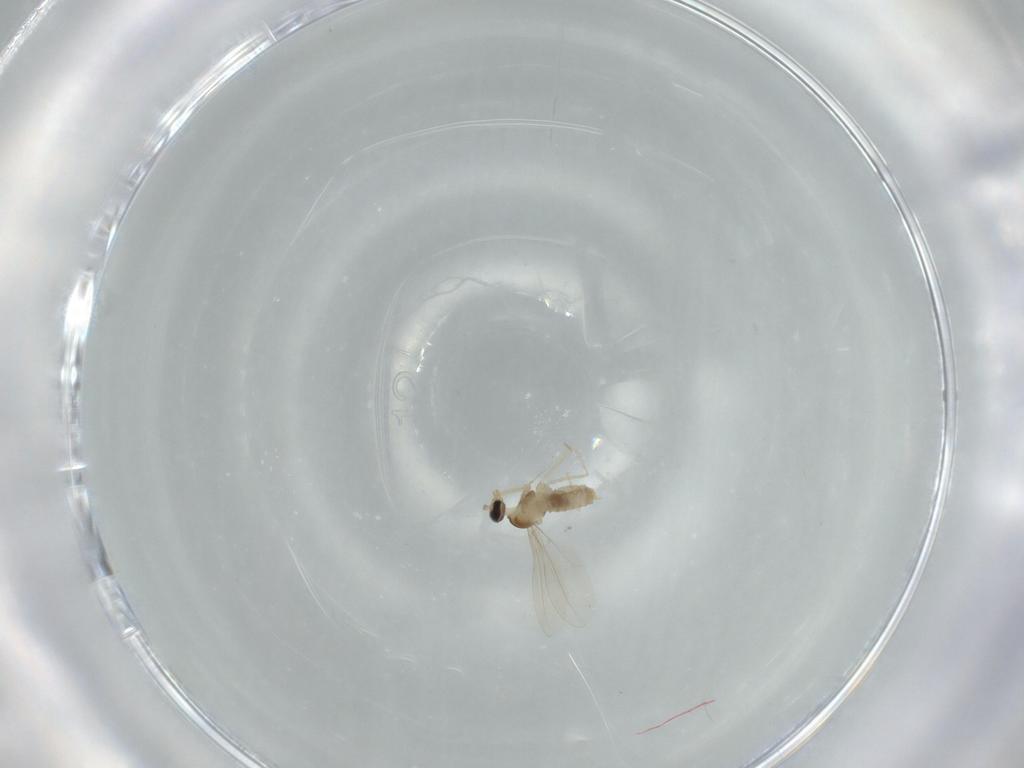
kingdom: Animalia
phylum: Arthropoda
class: Insecta
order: Diptera
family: Cecidomyiidae
